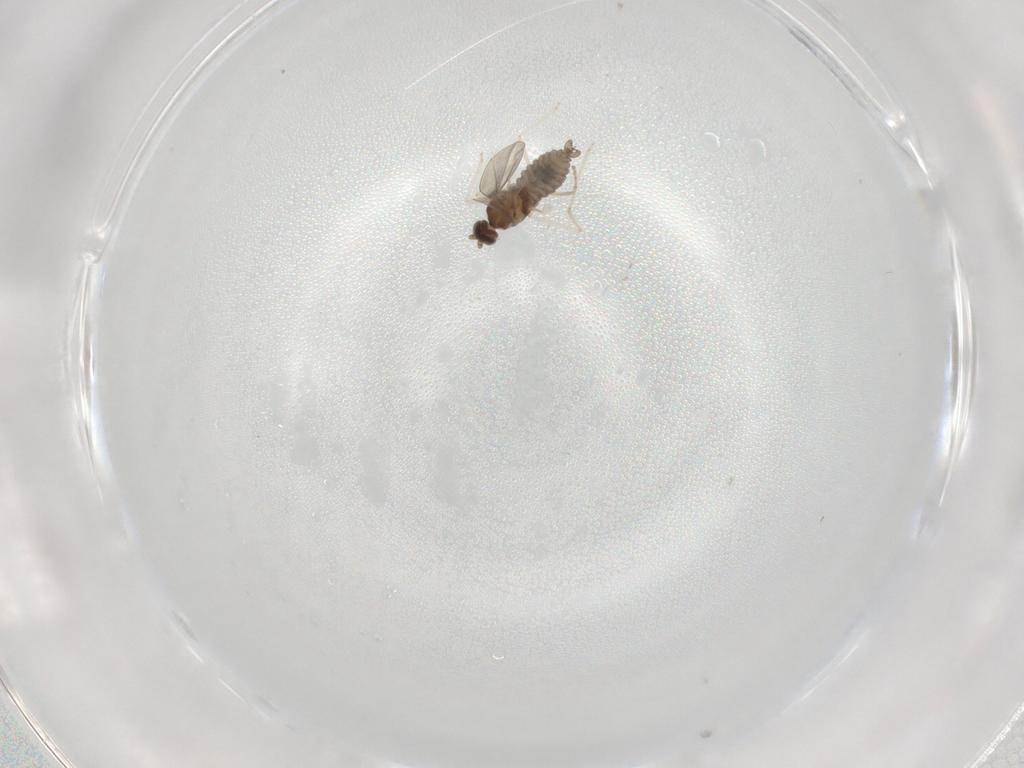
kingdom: Animalia
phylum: Arthropoda
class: Insecta
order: Diptera
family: Cecidomyiidae
